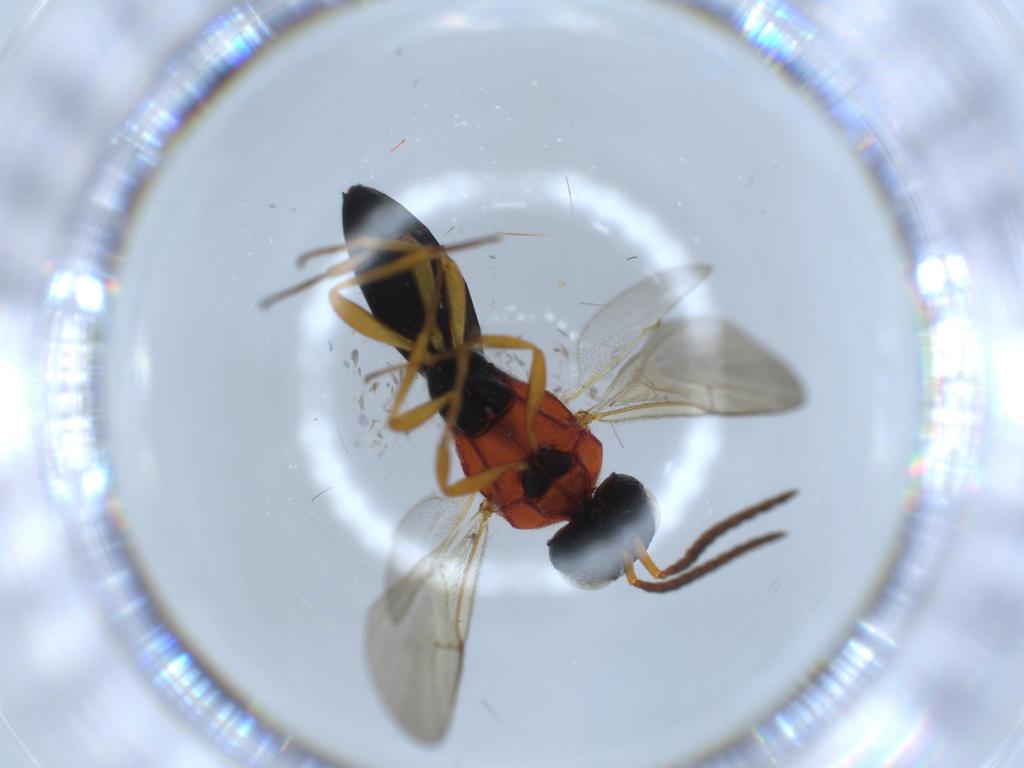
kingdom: Animalia
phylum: Arthropoda
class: Insecta
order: Hymenoptera
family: Scelionidae
